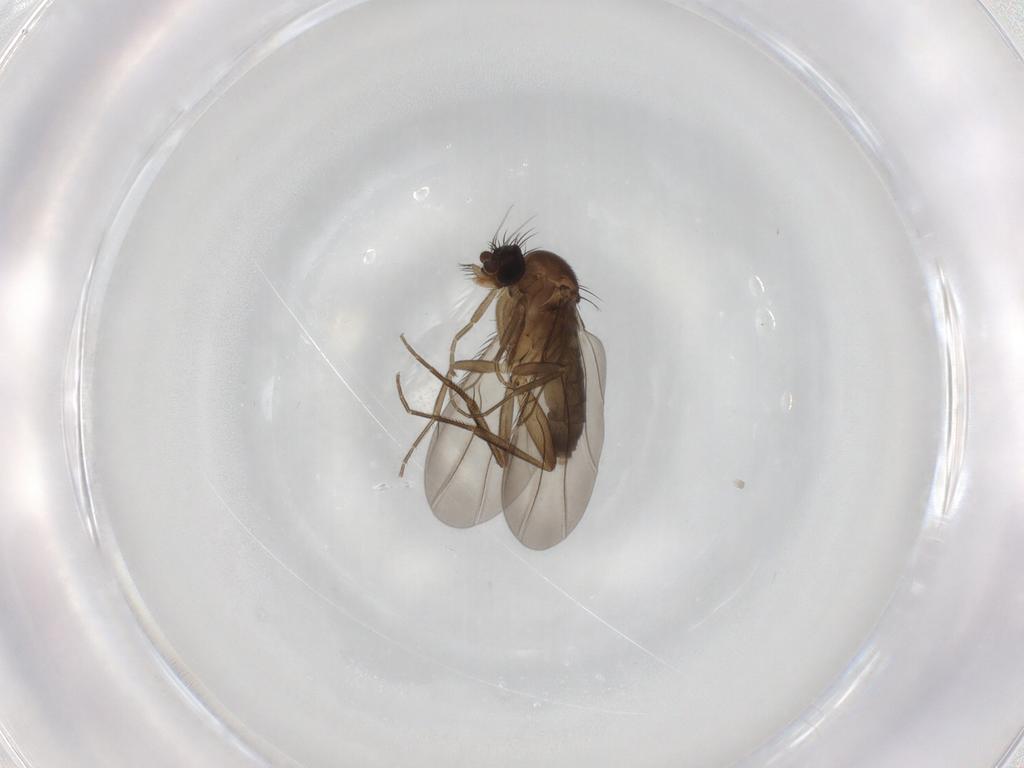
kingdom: Animalia
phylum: Arthropoda
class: Insecta
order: Diptera
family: Phoridae
